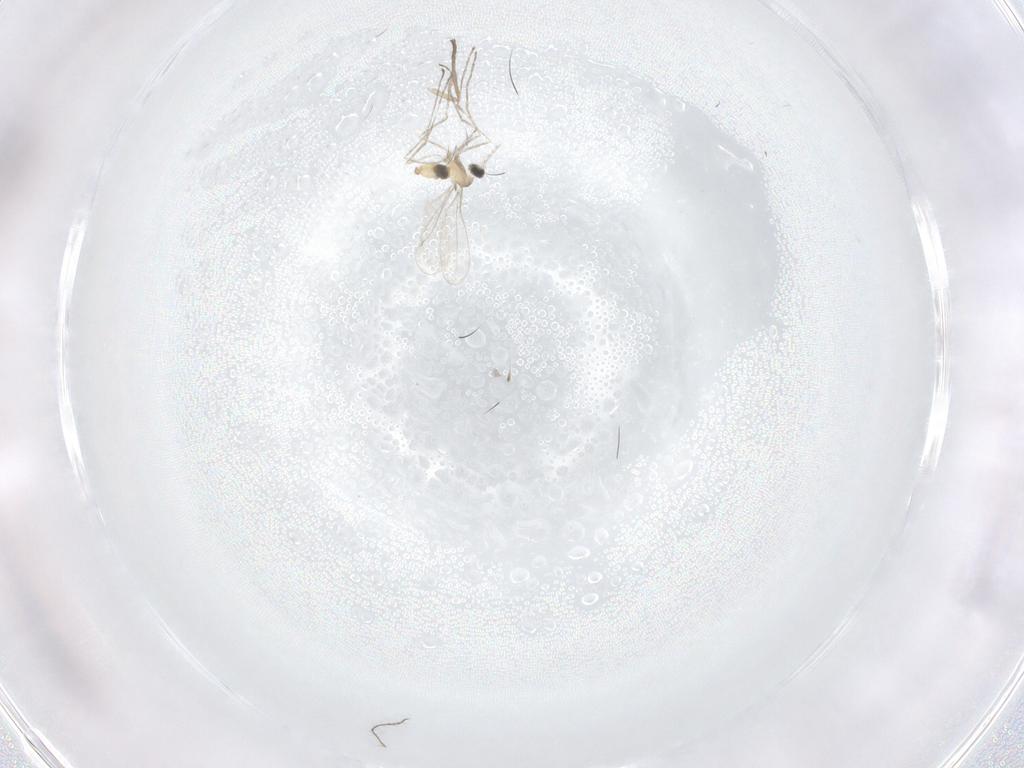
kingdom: Animalia
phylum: Arthropoda
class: Insecta
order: Diptera
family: Cecidomyiidae
